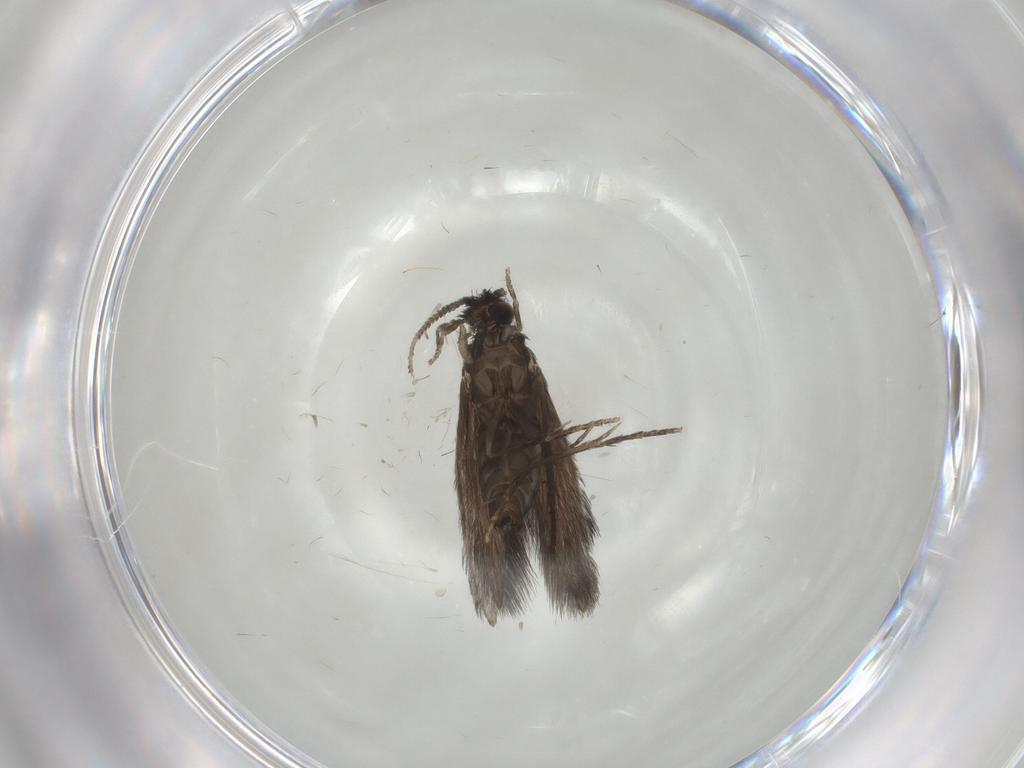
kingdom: Animalia
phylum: Arthropoda
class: Insecta
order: Trichoptera
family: Hydroptilidae
